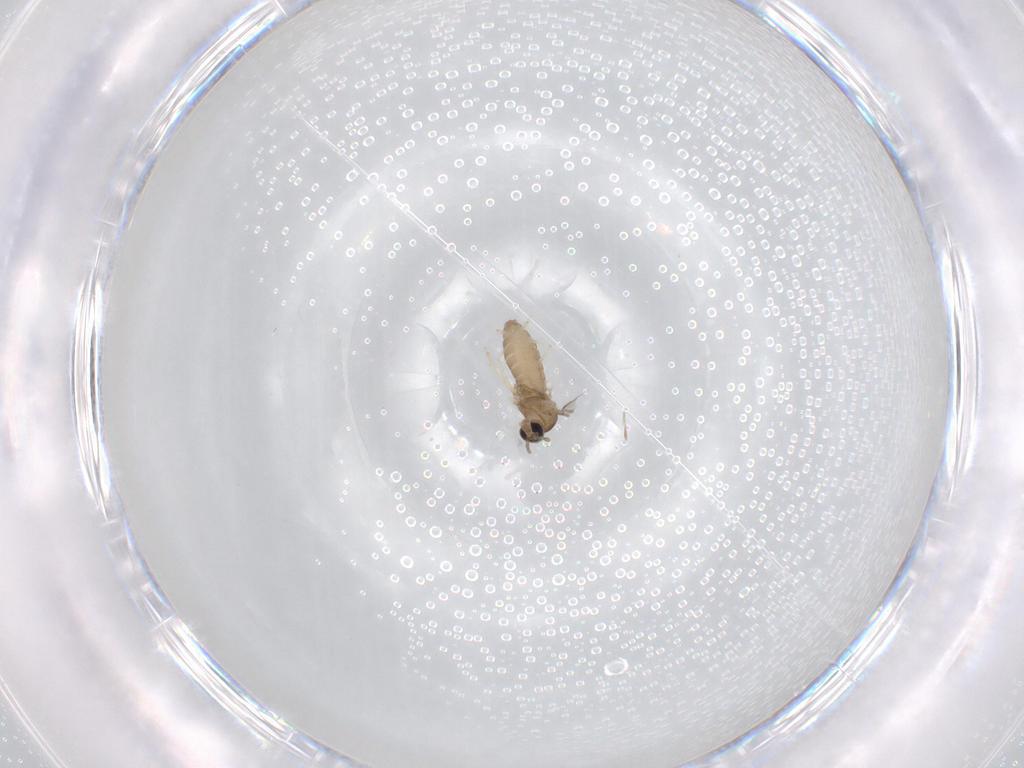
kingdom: Animalia
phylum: Arthropoda
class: Insecta
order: Diptera
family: Cecidomyiidae
